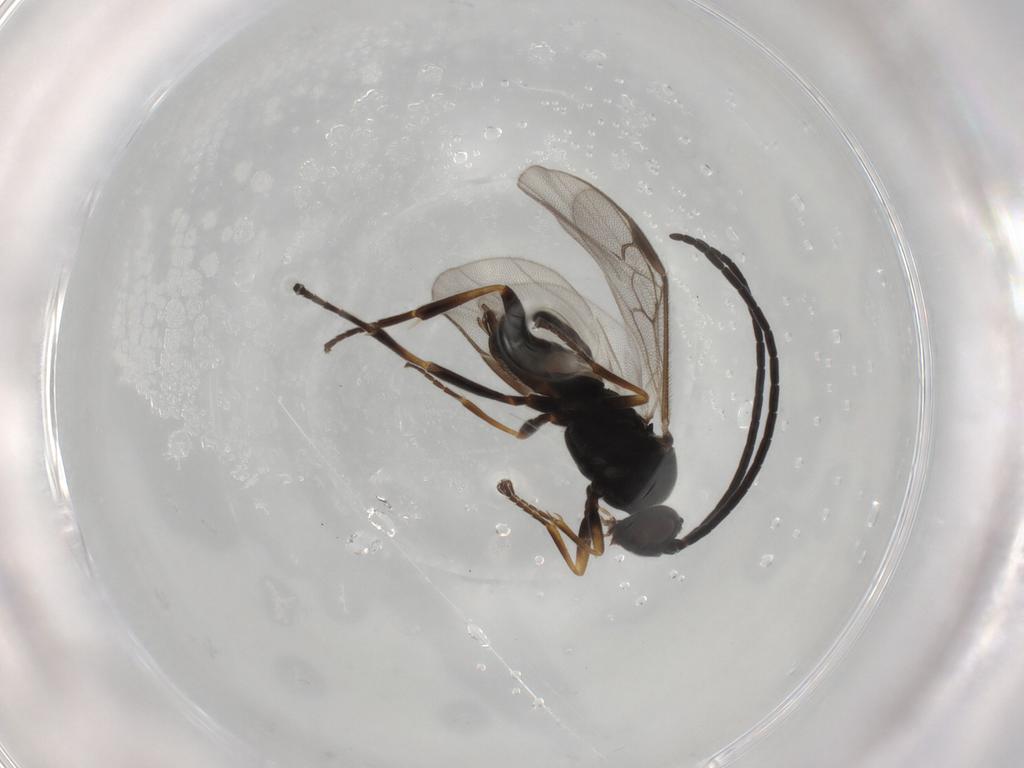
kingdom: Animalia
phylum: Arthropoda
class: Insecta
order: Hymenoptera
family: Braconidae
